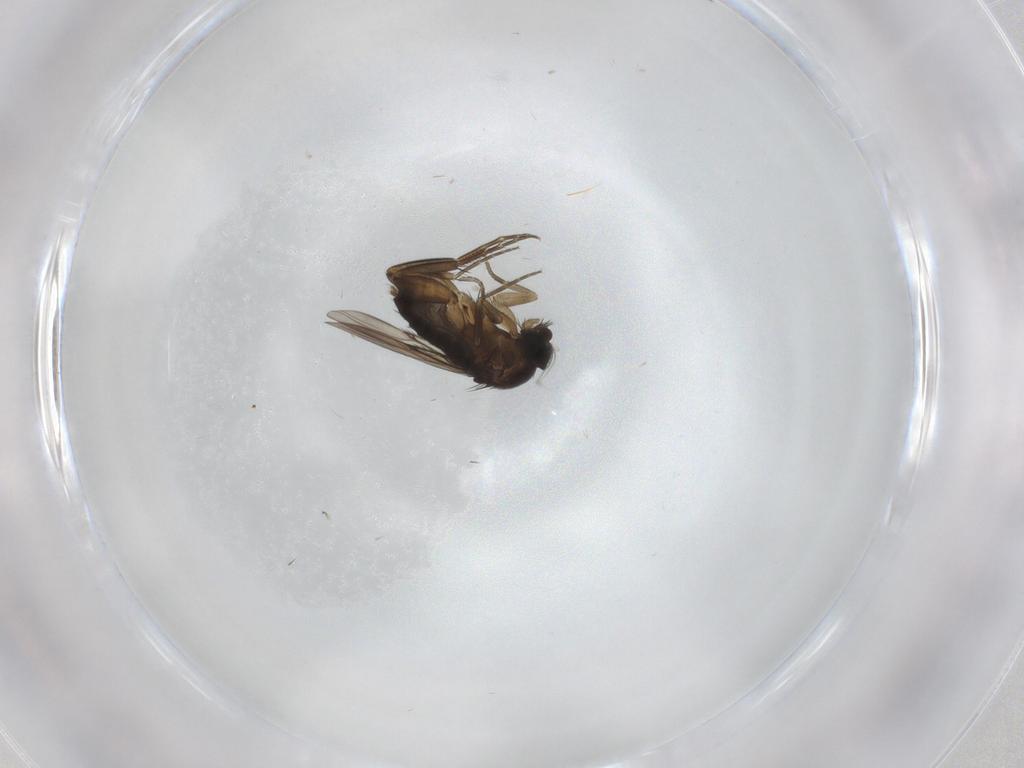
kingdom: Animalia
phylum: Arthropoda
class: Insecta
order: Diptera
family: Phoridae
